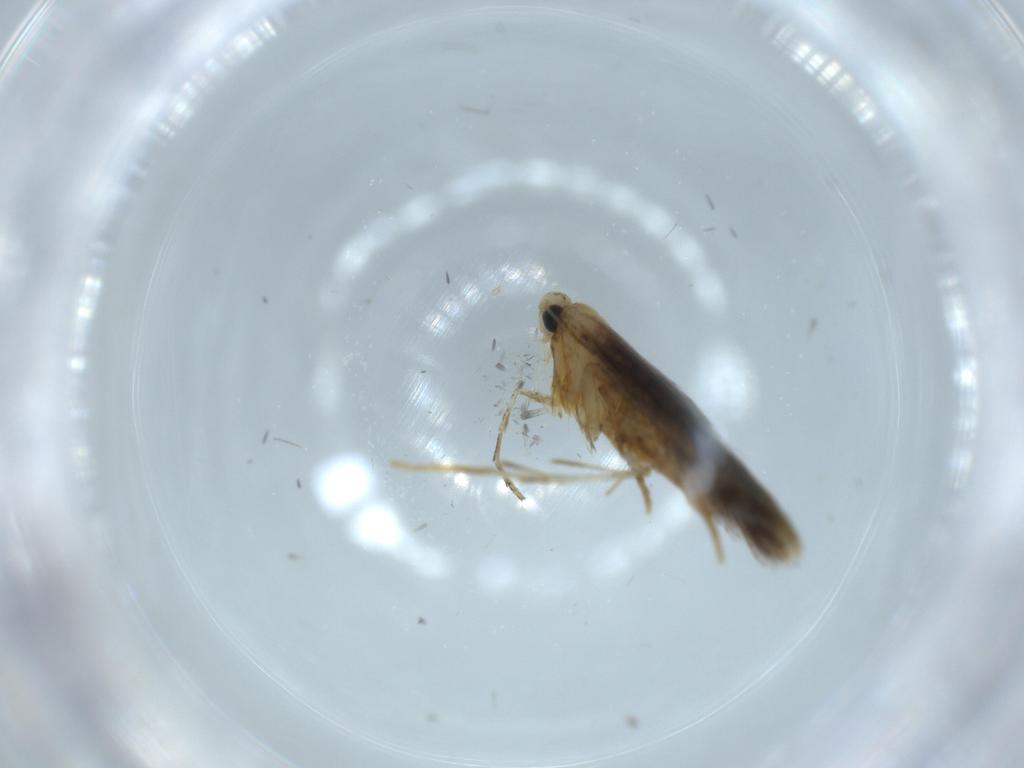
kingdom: Animalia
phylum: Arthropoda
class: Insecta
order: Lepidoptera
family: Tischeriidae
